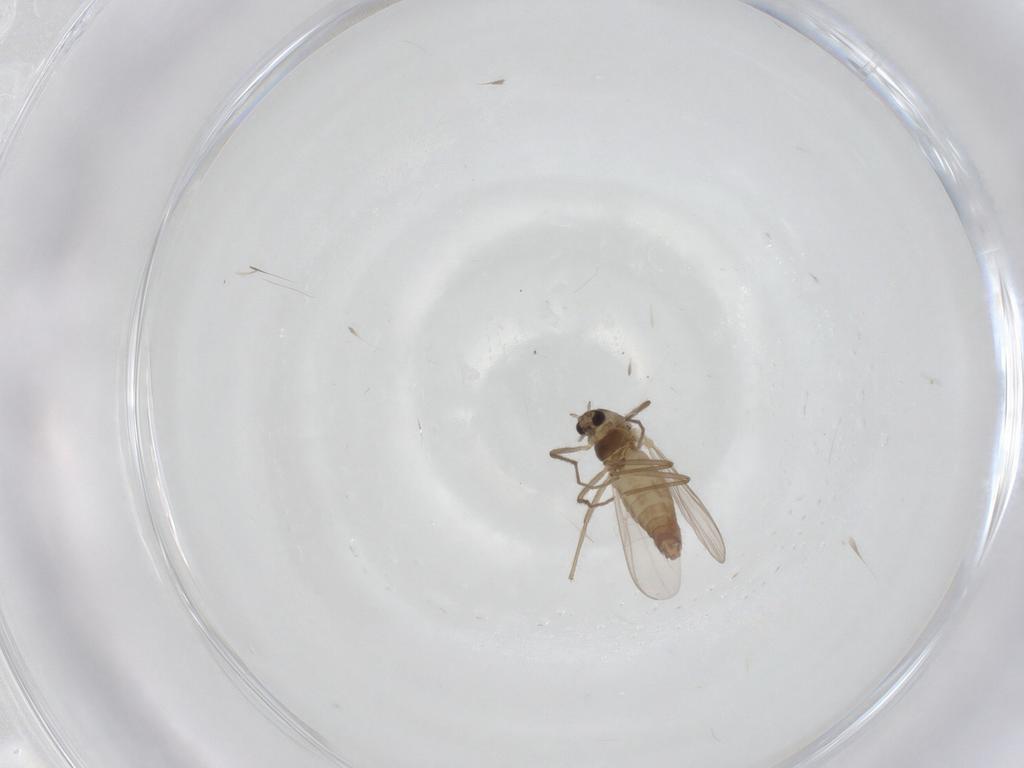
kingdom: Animalia
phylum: Arthropoda
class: Insecta
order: Diptera
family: Chironomidae
